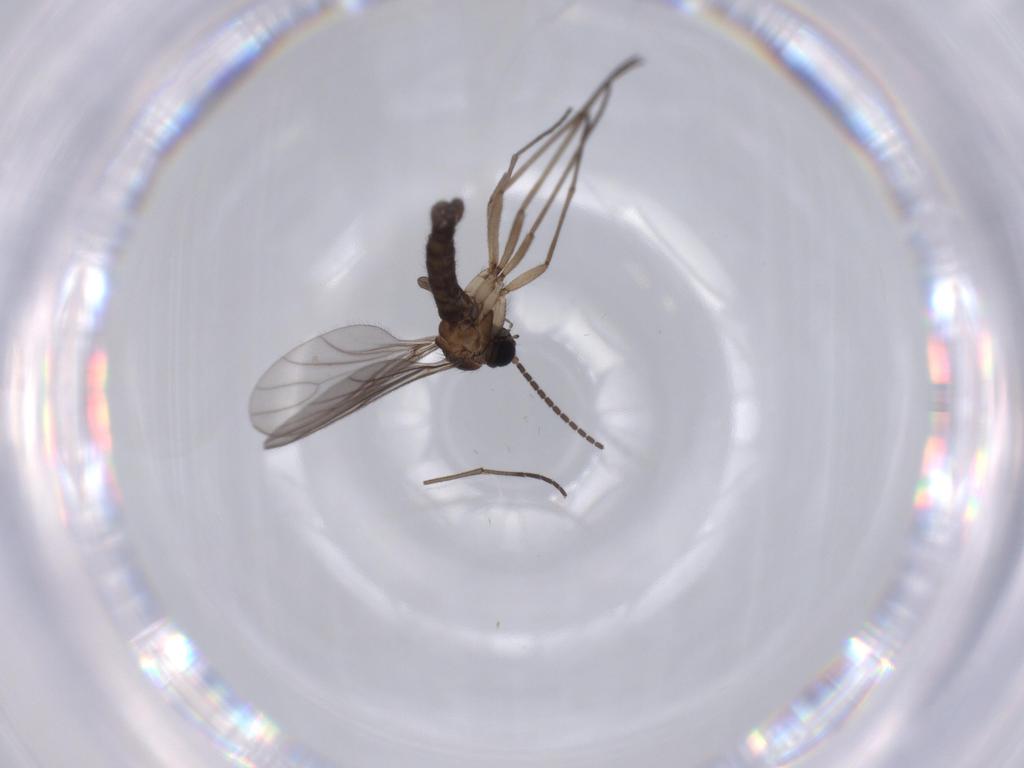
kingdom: Animalia
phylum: Arthropoda
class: Insecta
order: Diptera
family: Sciaridae
